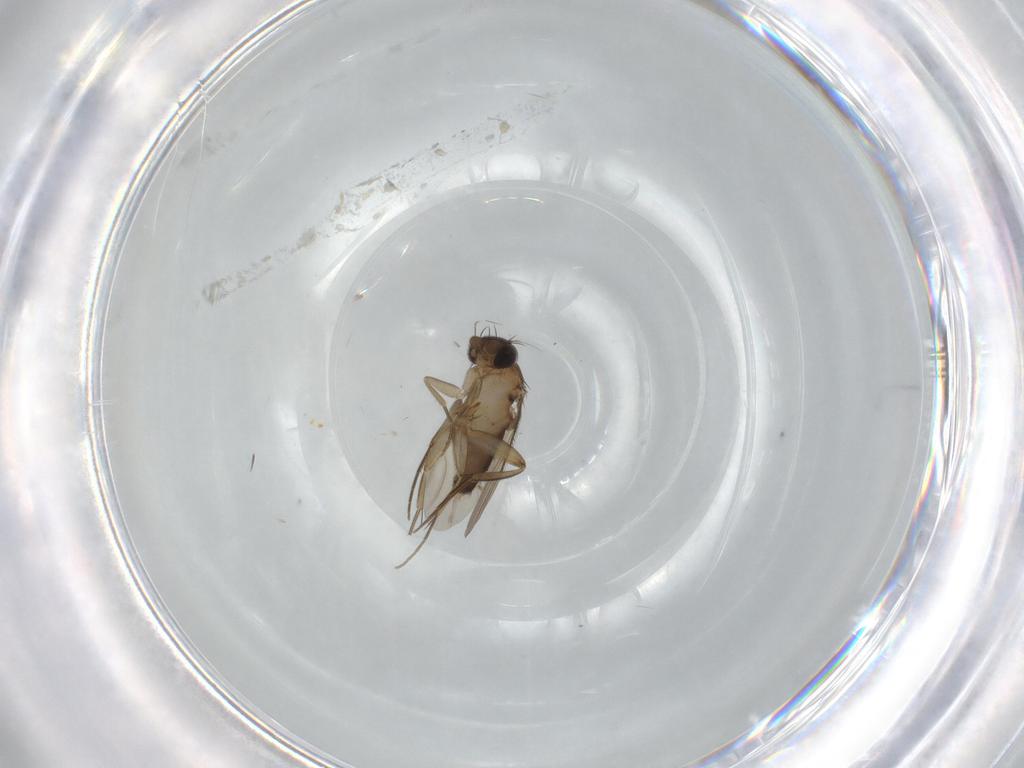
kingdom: Animalia
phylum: Arthropoda
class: Insecta
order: Diptera
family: Phoridae
